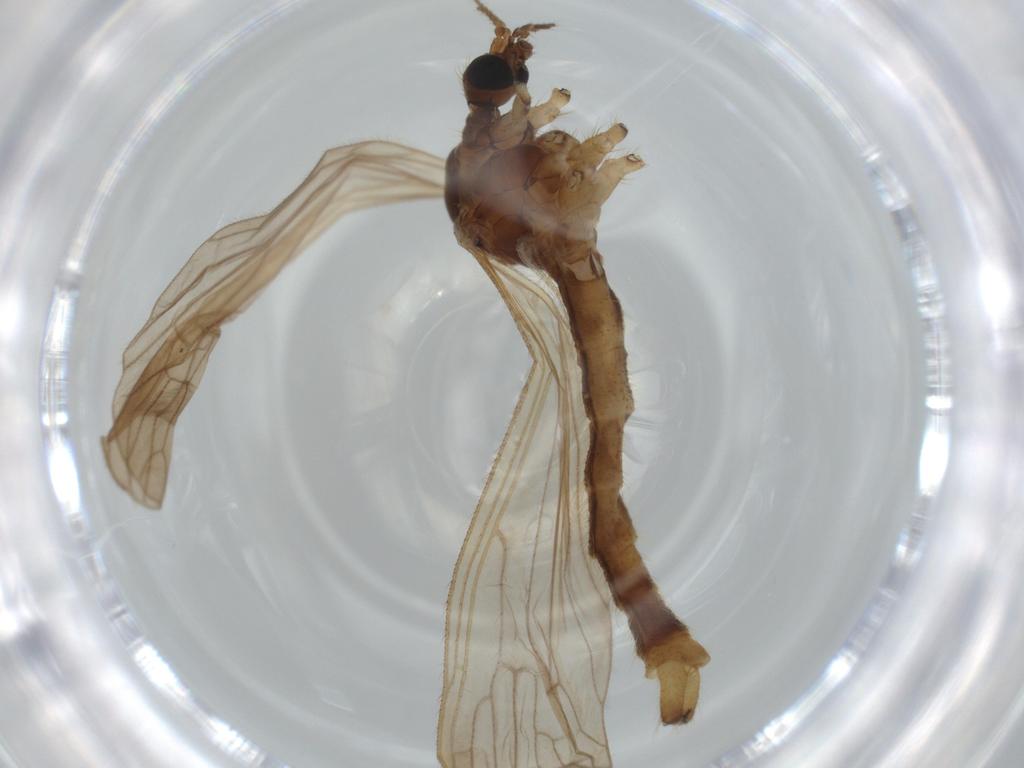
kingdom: Animalia
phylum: Arthropoda
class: Insecta
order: Diptera
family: Limoniidae
